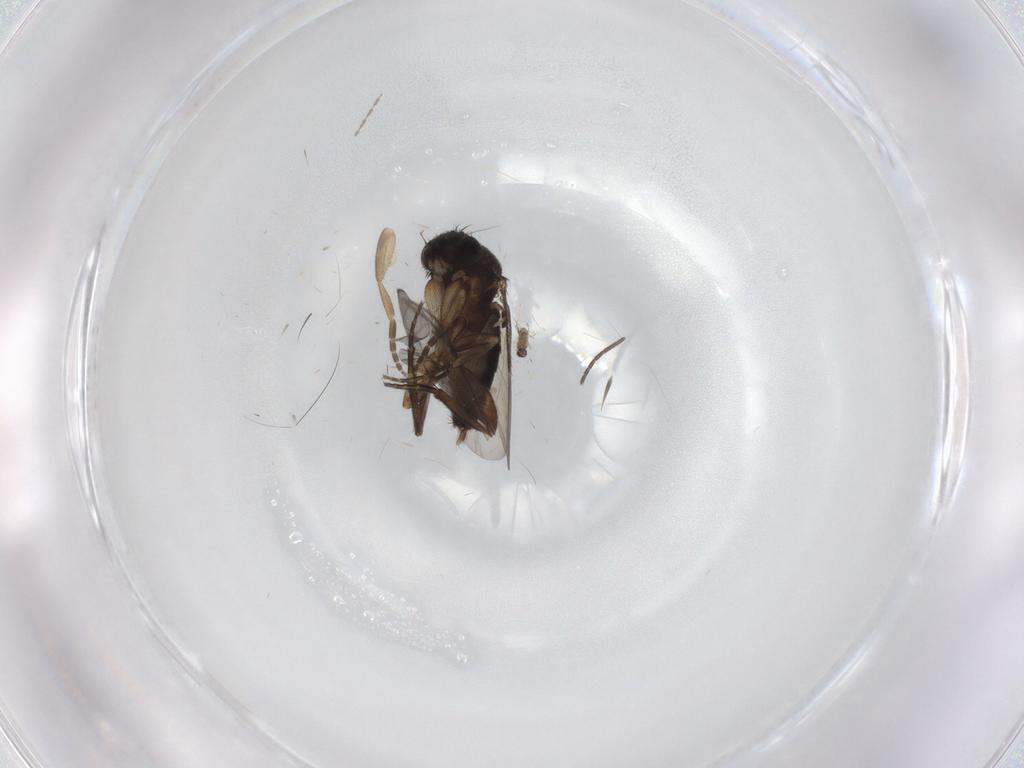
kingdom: Animalia
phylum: Arthropoda
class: Insecta
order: Diptera
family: Phoridae
